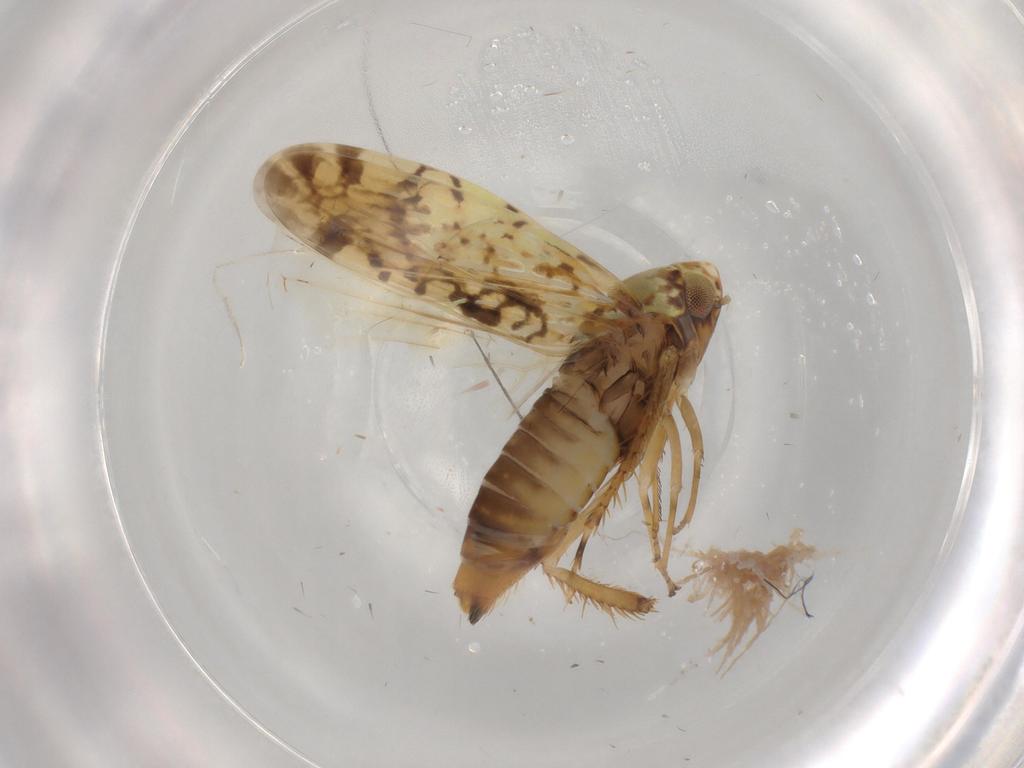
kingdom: Animalia
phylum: Arthropoda
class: Insecta
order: Hemiptera
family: Cicadellidae
